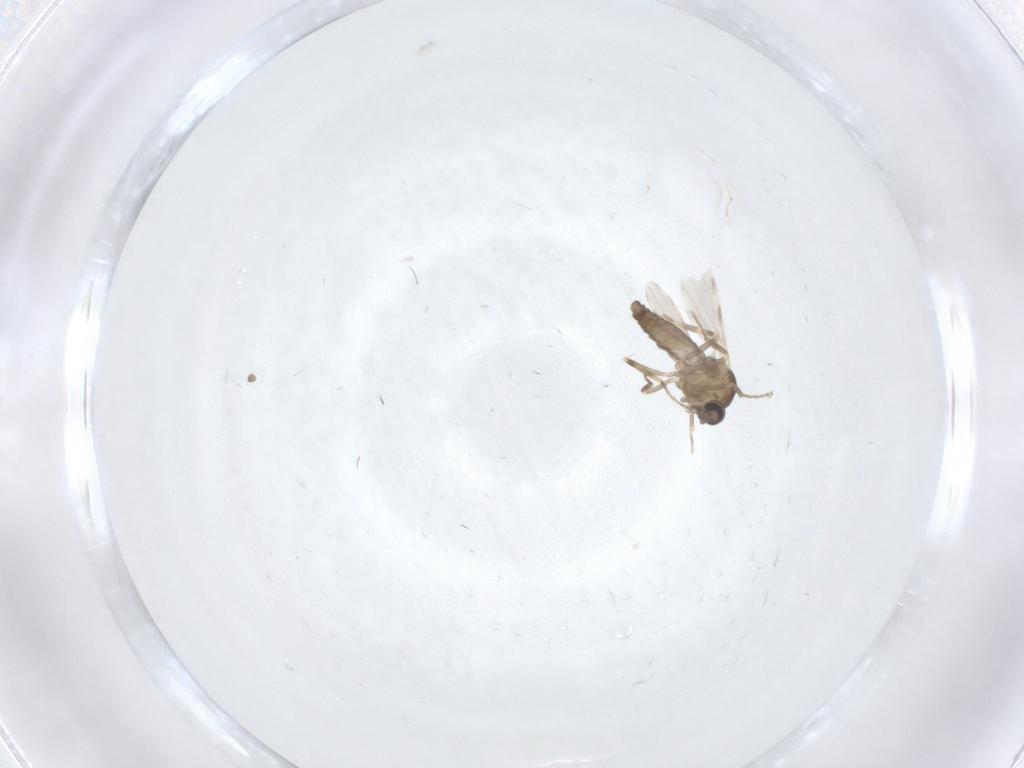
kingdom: Animalia
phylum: Arthropoda
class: Insecta
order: Diptera
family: Ceratopogonidae
